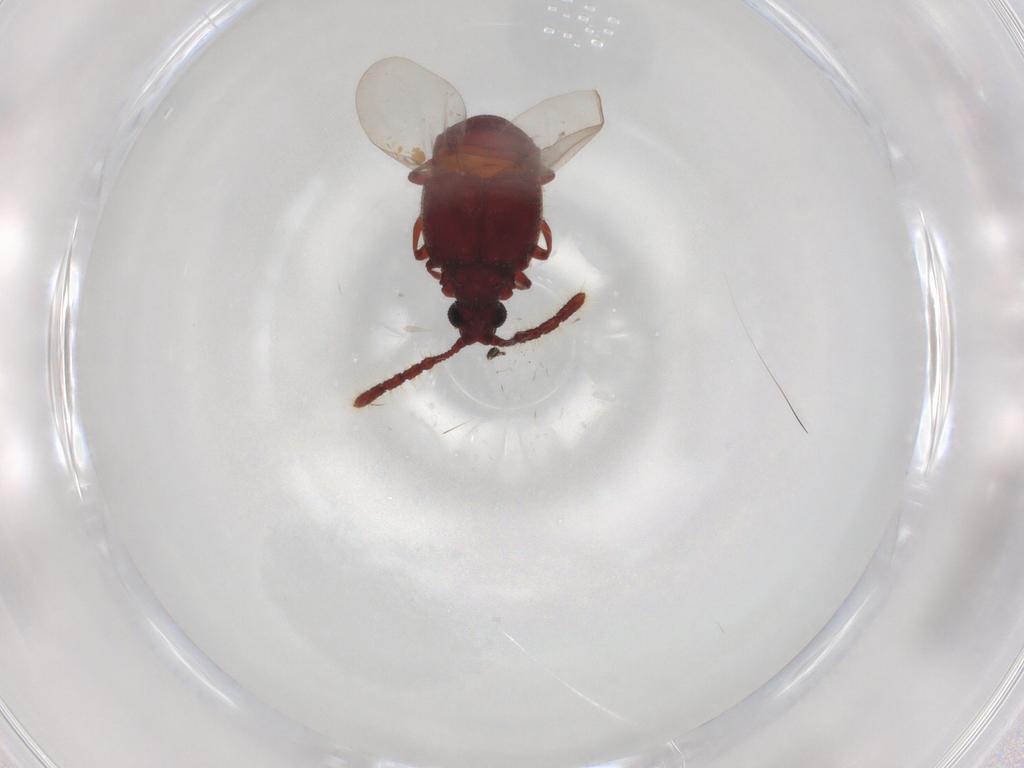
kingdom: Animalia
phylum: Arthropoda
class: Insecta
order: Coleoptera
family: Staphylinidae
